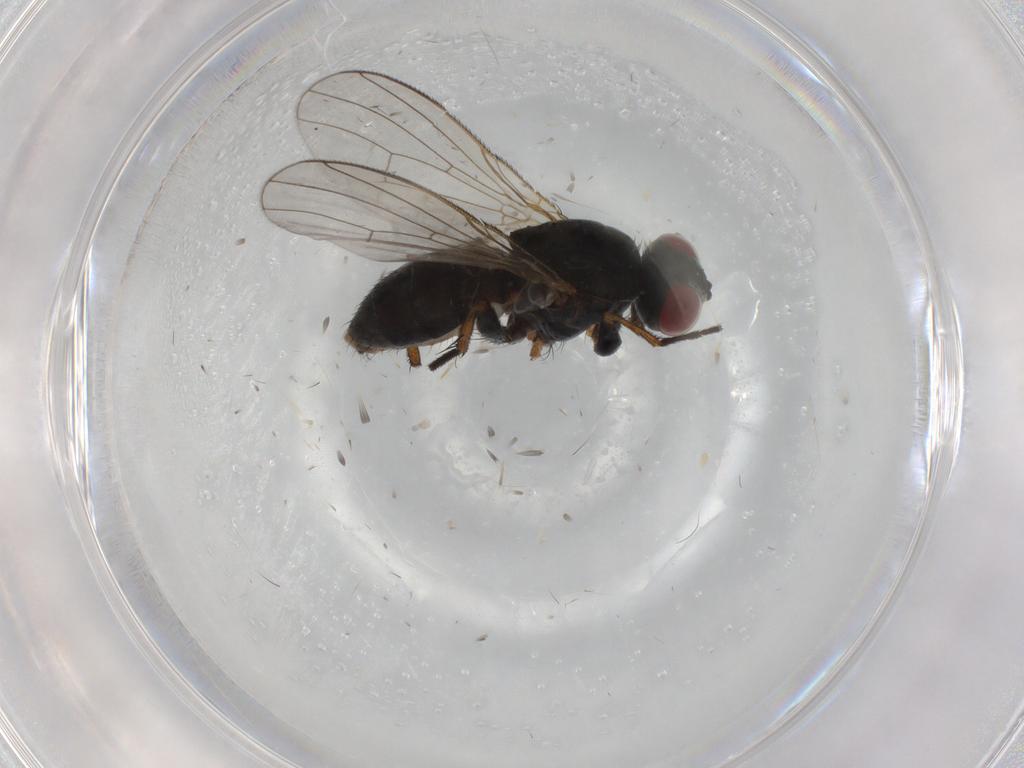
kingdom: Animalia
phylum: Arthropoda
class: Insecta
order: Diptera
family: Muscidae
